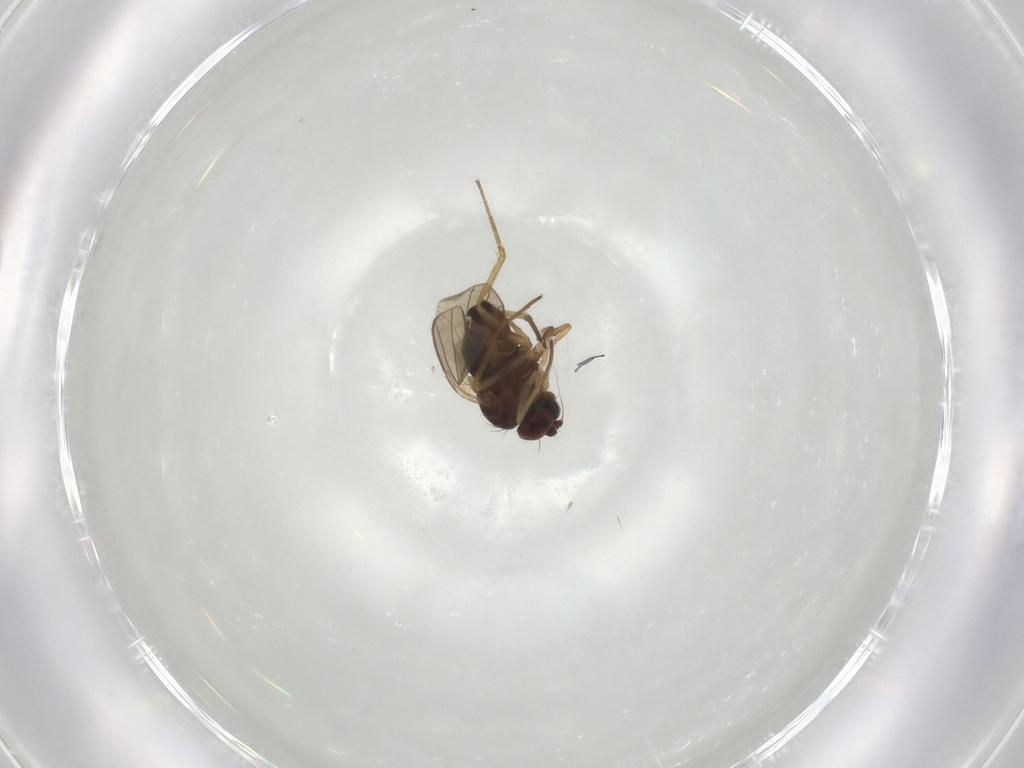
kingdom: Animalia
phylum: Arthropoda
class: Insecta
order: Diptera
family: Dolichopodidae
